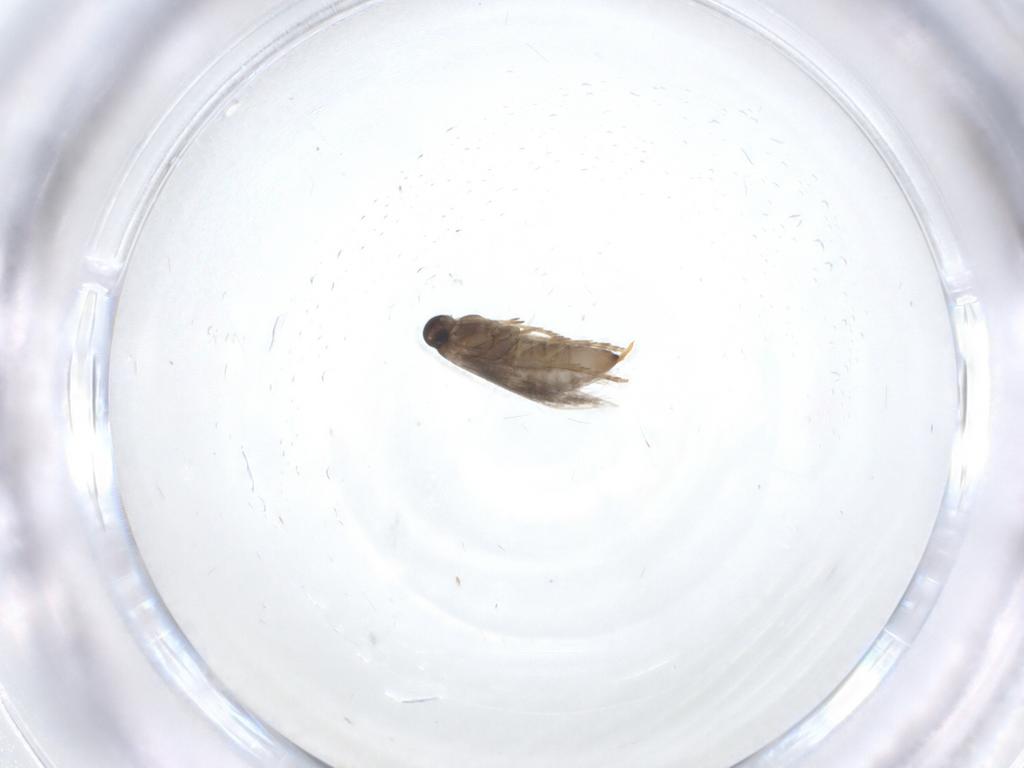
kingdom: Animalia
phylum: Arthropoda
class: Insecta
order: Lepidoptera
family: Heliozelidae
